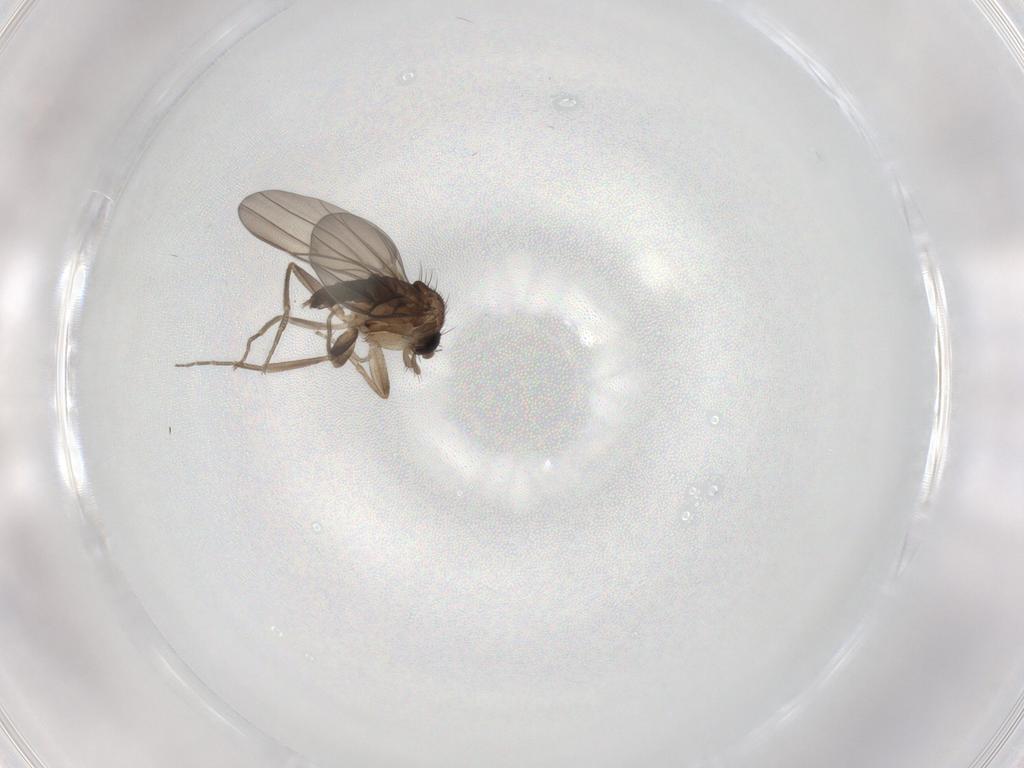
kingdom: Animalia
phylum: Arthropoda
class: Insecta
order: Diptera
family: Phoridae
